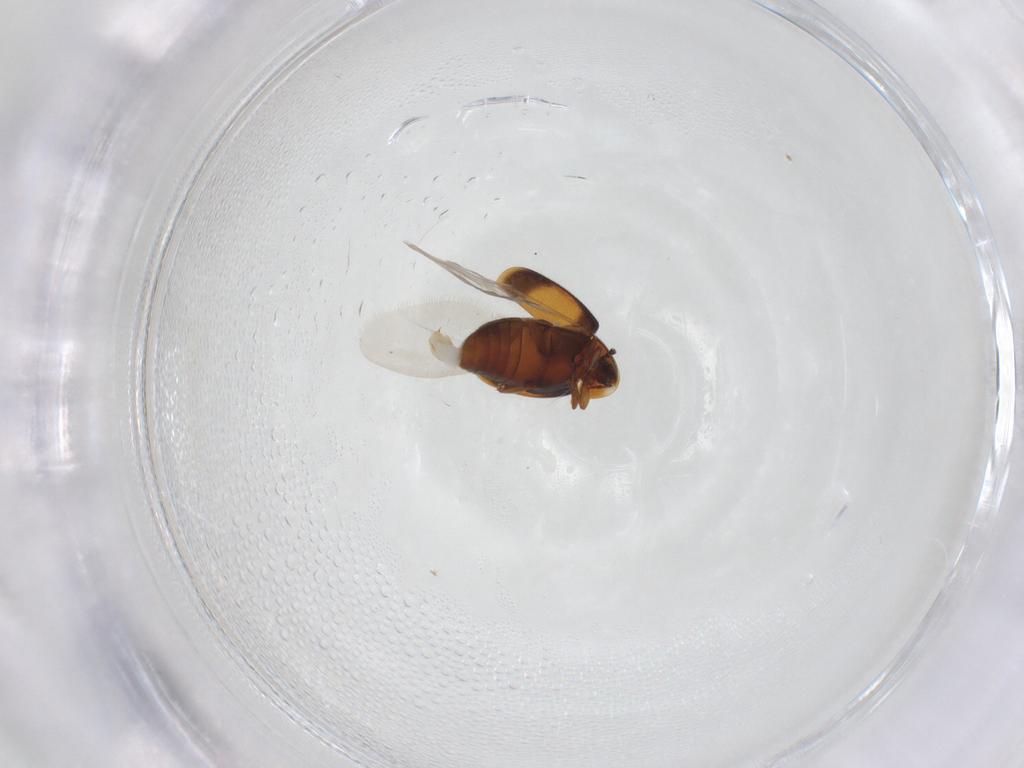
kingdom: Animalia
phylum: Arthropoda
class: Insecta
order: Coleoptera
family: Corylophidae
